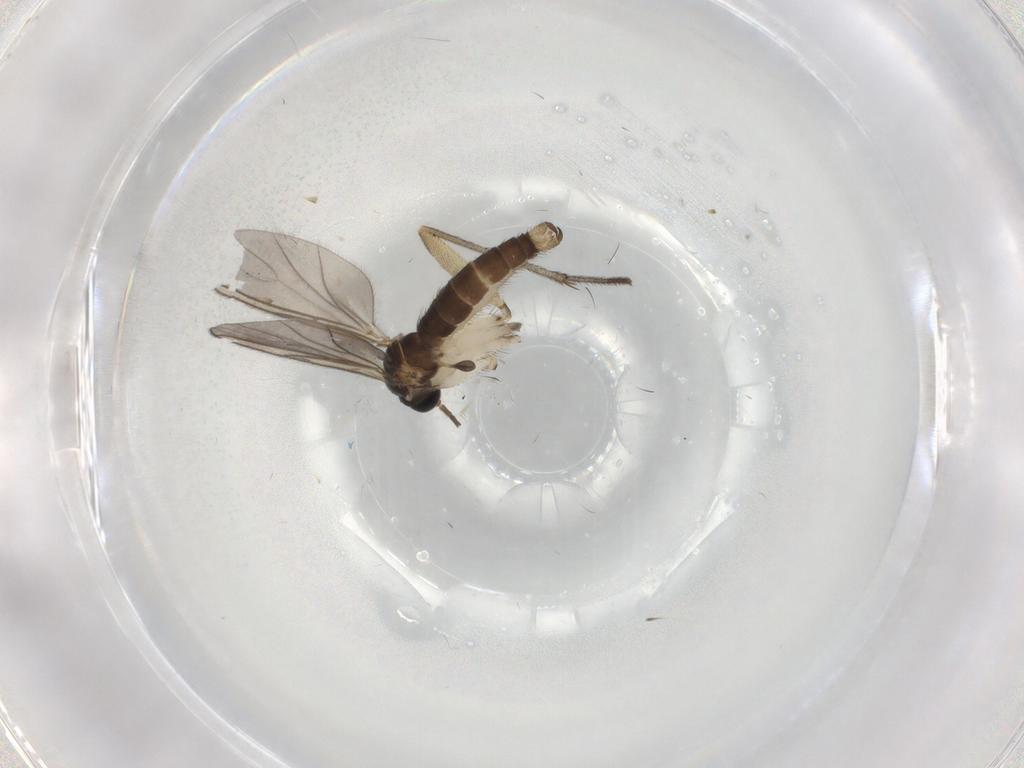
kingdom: Animalia
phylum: Arthropoda
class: Insecta
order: Diptera
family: Sciaridae
